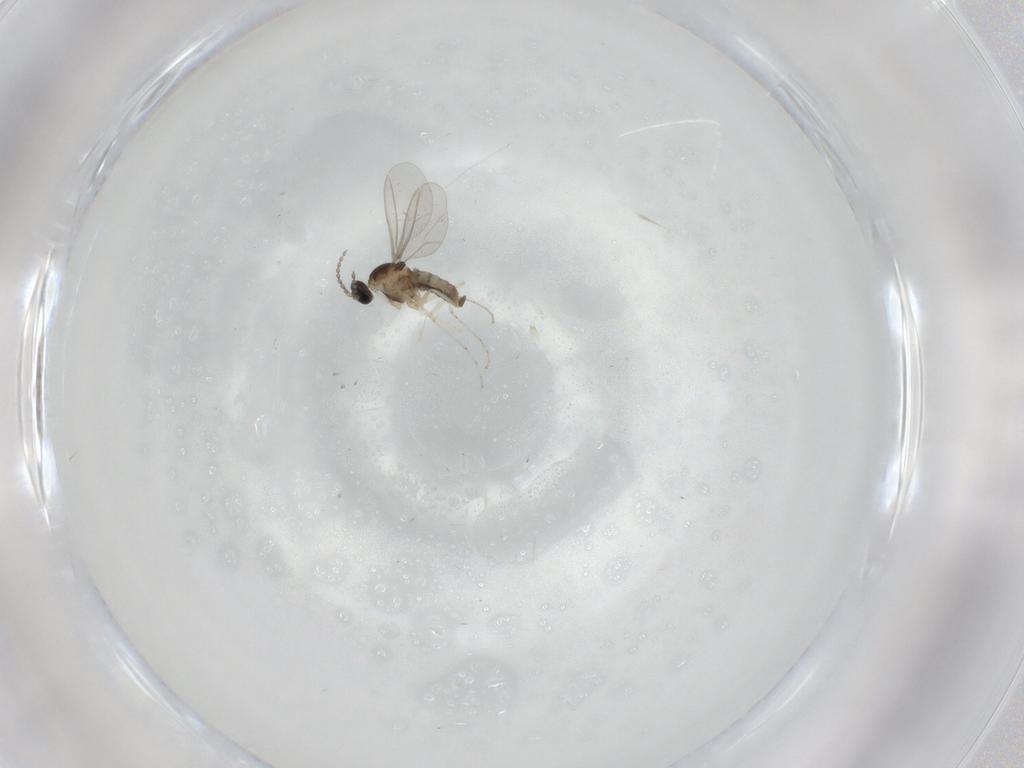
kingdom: Animalia
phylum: Arthropoda
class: Insecta
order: Diptera
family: Cecidomyiidae
